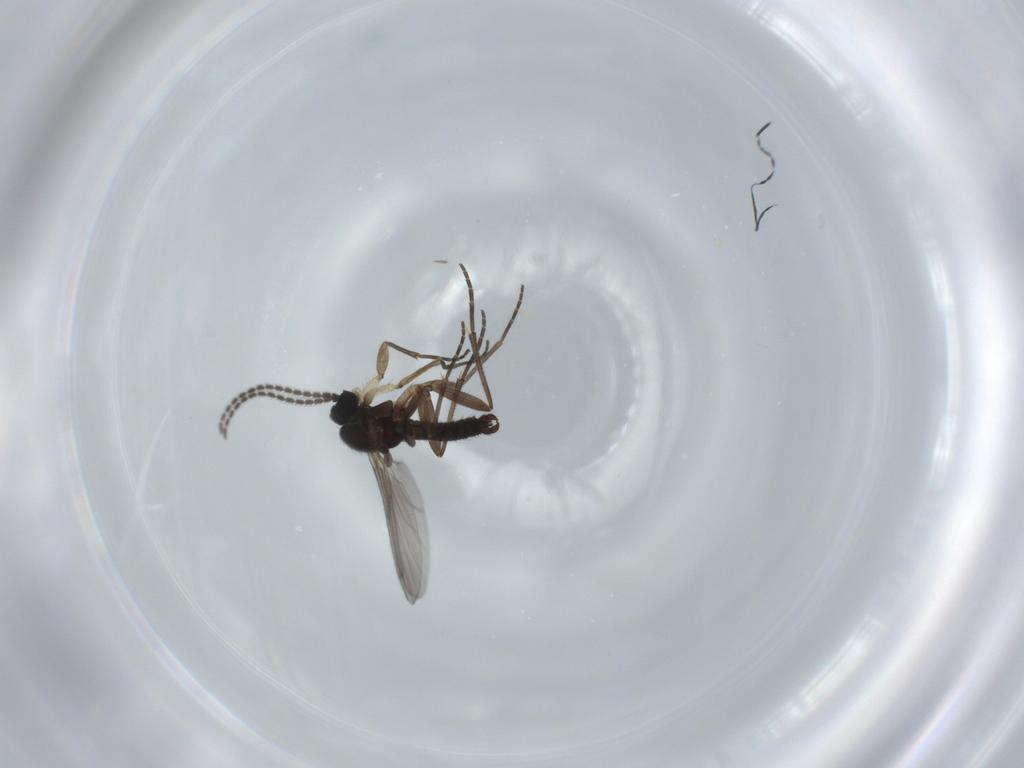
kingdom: Animalia
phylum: Arthropoda
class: Insecta
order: Diptera
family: Sciaridae
